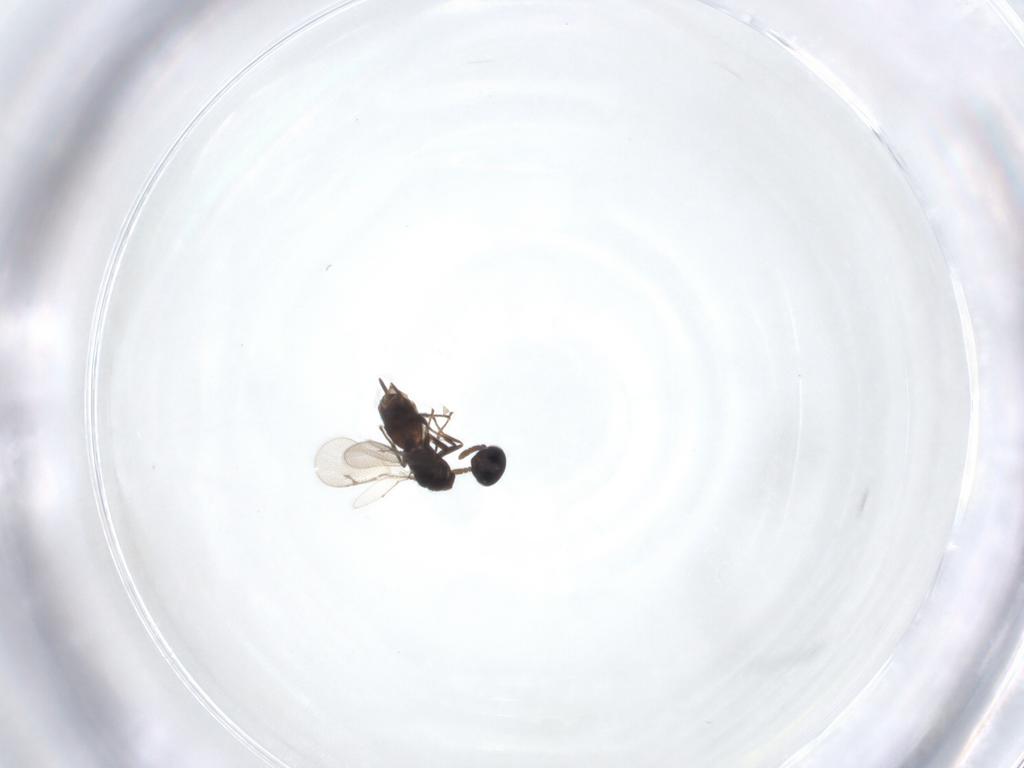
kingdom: Animalia
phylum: Arthropoda
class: Insecta
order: Hymenoptera
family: Pirenidae
